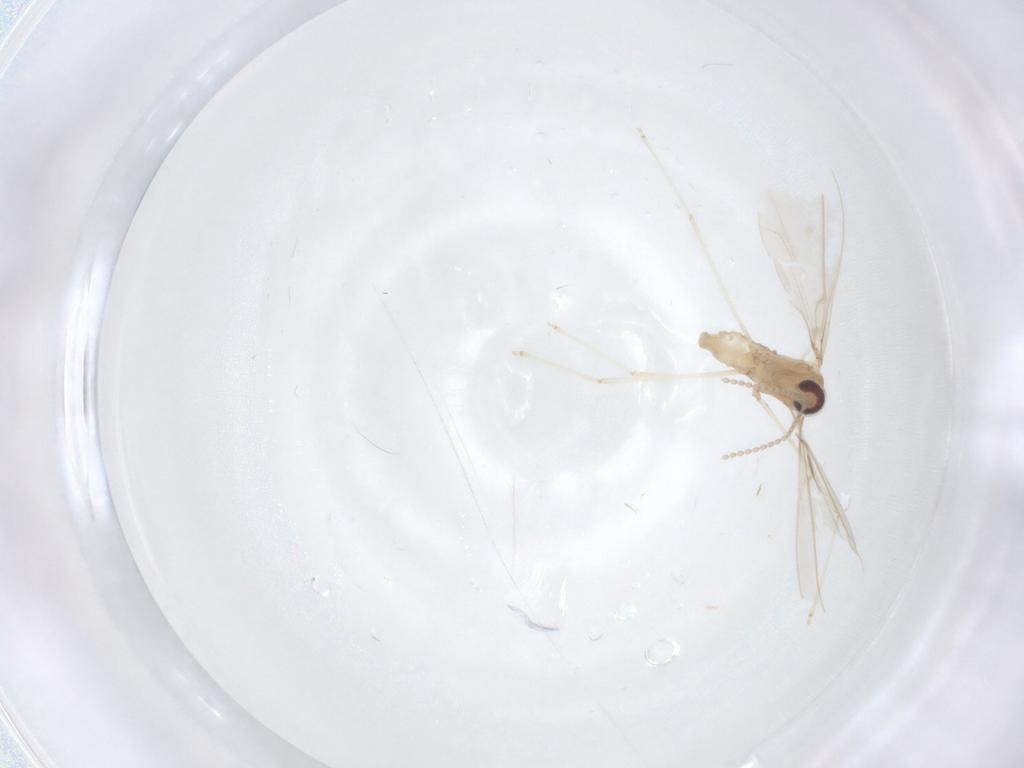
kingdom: Animalia
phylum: Arthropoda
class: Insecta
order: Diptera
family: Cecidomyiidae
